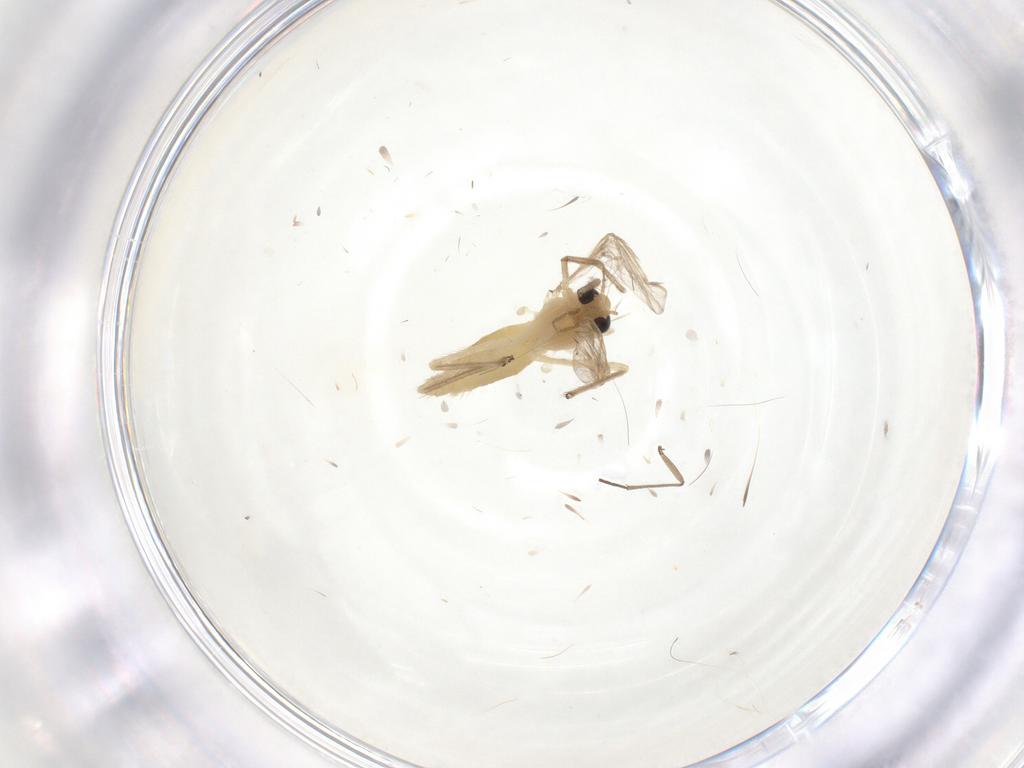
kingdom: Animalia
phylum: Arthropoda
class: Insecta
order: Diptera
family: Chironomidae
